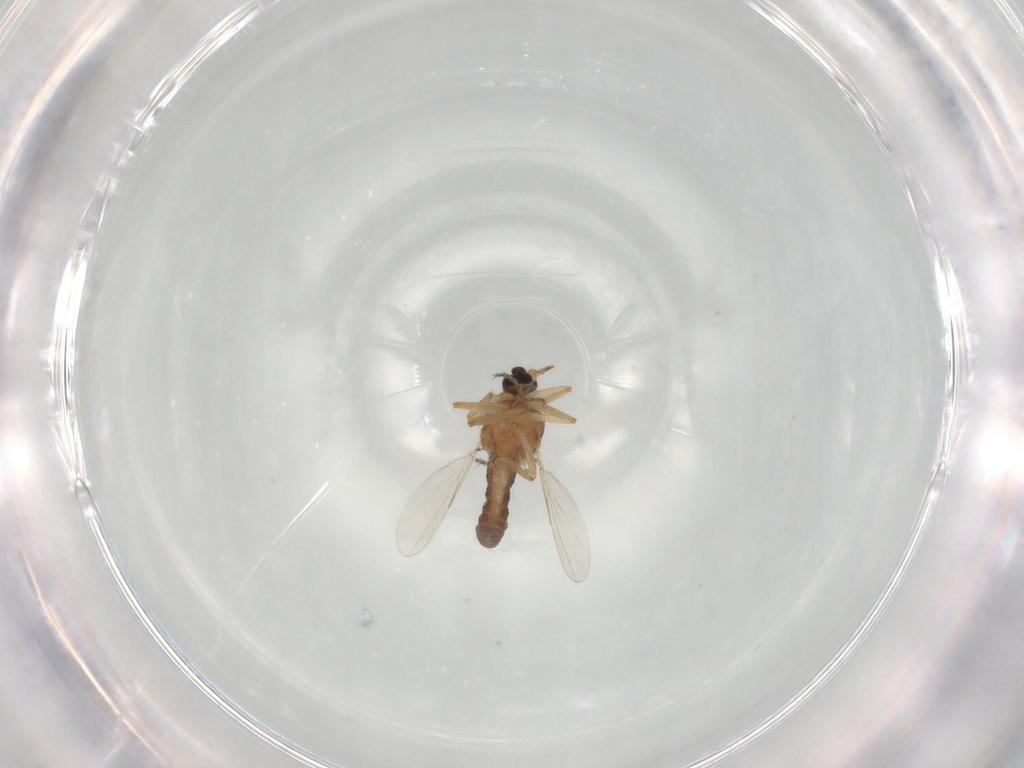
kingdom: Animalia
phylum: Arthropoda
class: Insecta
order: Diptera
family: Ceratopogonidae
